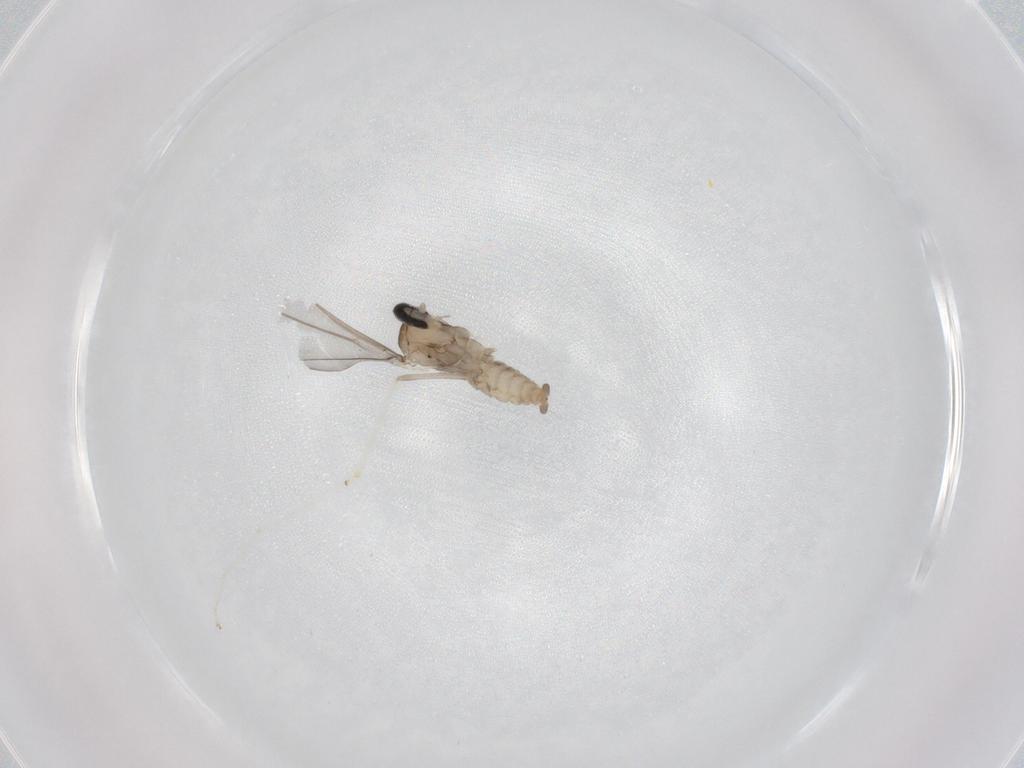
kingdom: Animalia
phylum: Arthropoda
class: Insecta
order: Diptera
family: Cecidomyiidae
